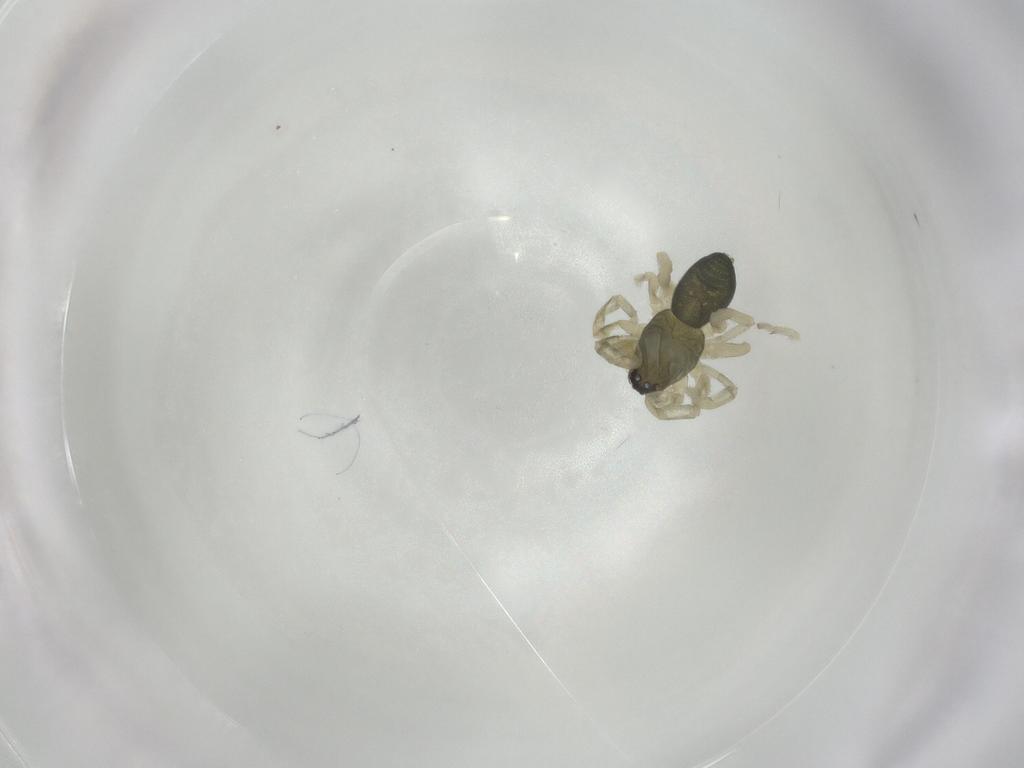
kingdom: Animalia
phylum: Arthropoda
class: Arachnida
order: Araneae
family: Trachelidae
